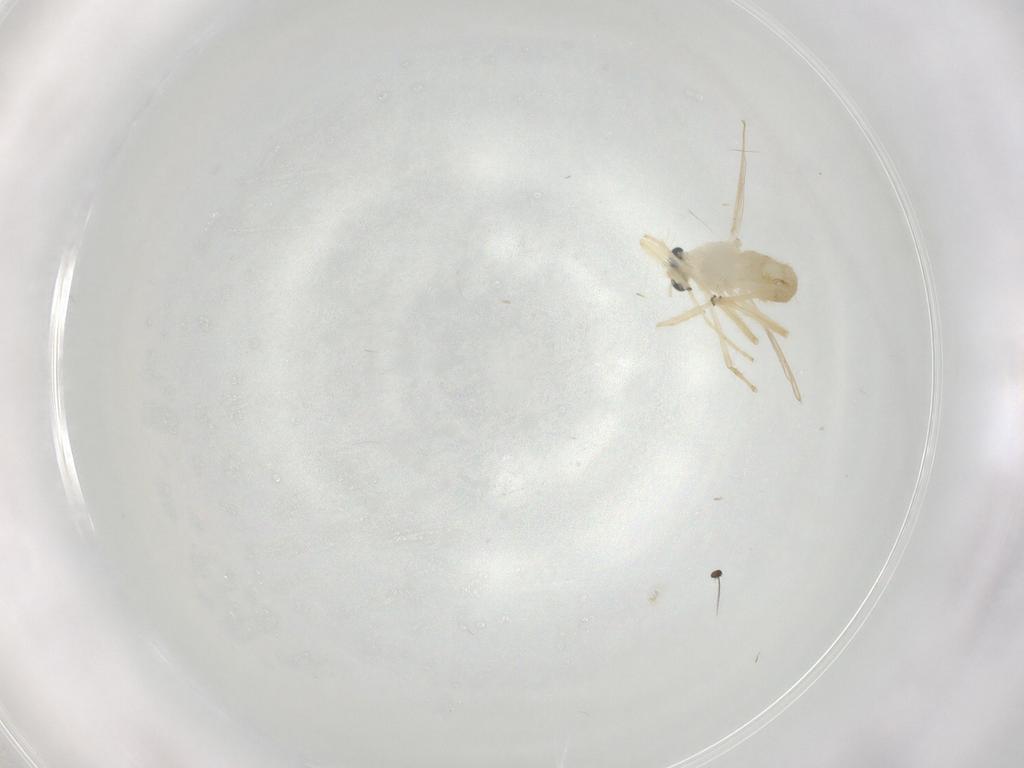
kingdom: Animalia
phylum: Arthropoda
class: Insecta
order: Diptera
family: Chironomidae
